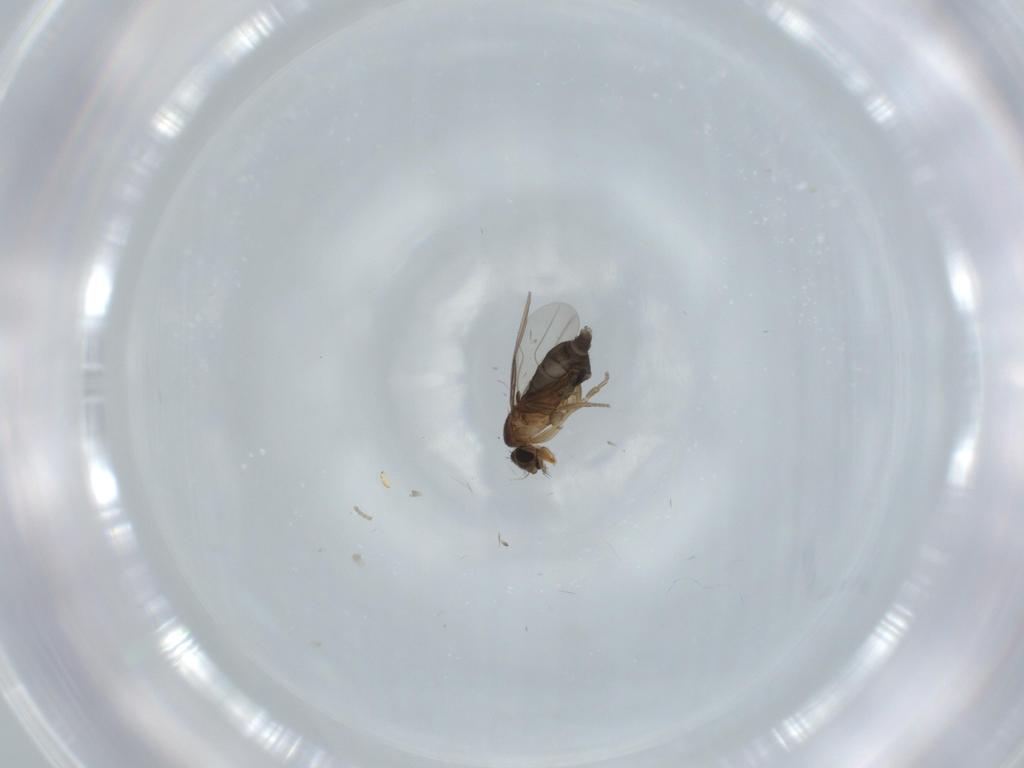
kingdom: Animalia
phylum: Arthropoda
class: Insecta
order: Diptera
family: Phoridae
